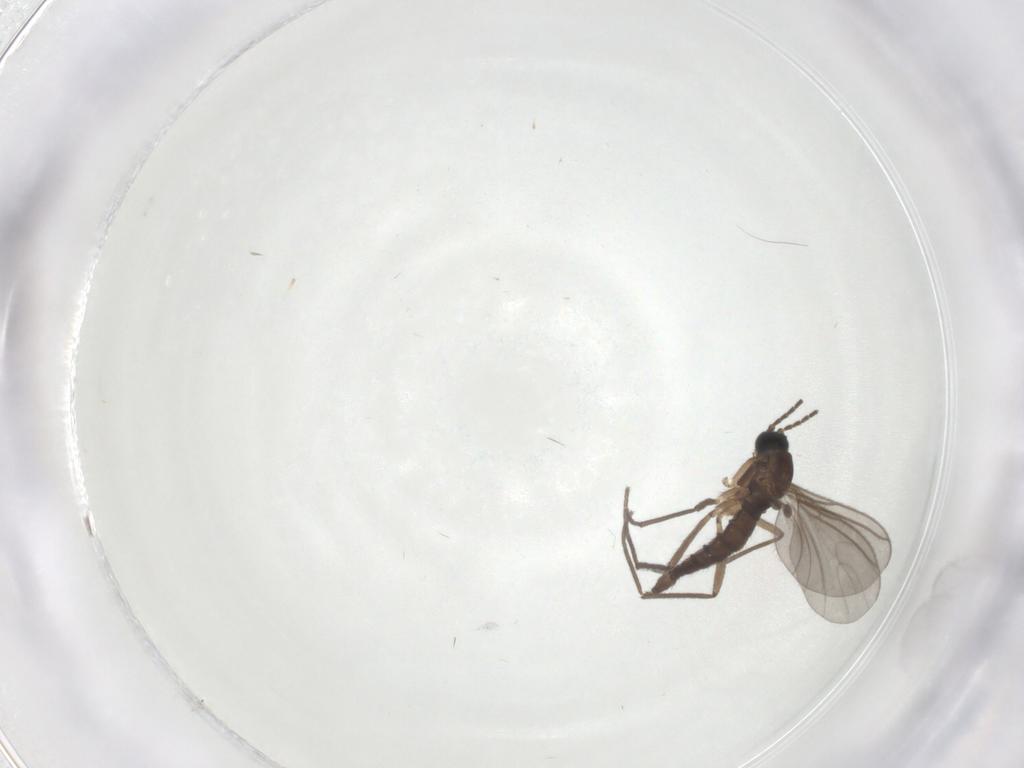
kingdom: Animalia
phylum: Arthropoda
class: Insecta
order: Diptera
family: Sciaridae
